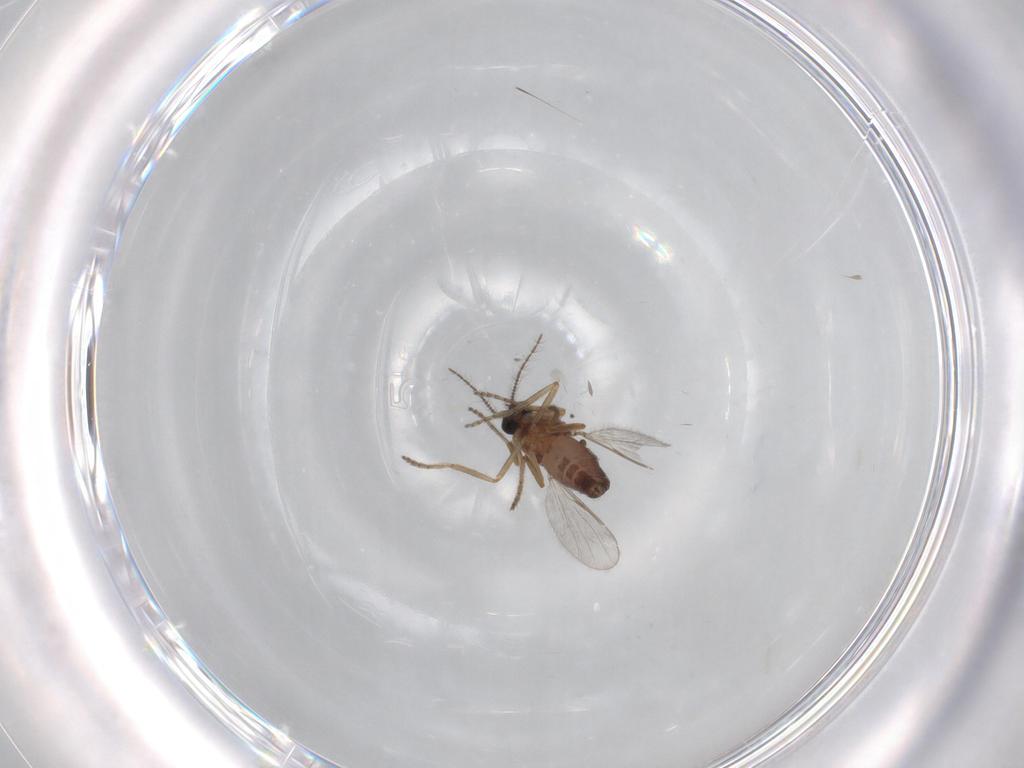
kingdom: Animalia
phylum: Arthropoda
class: Insecta
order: Diptera
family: Ceratopogonidae
